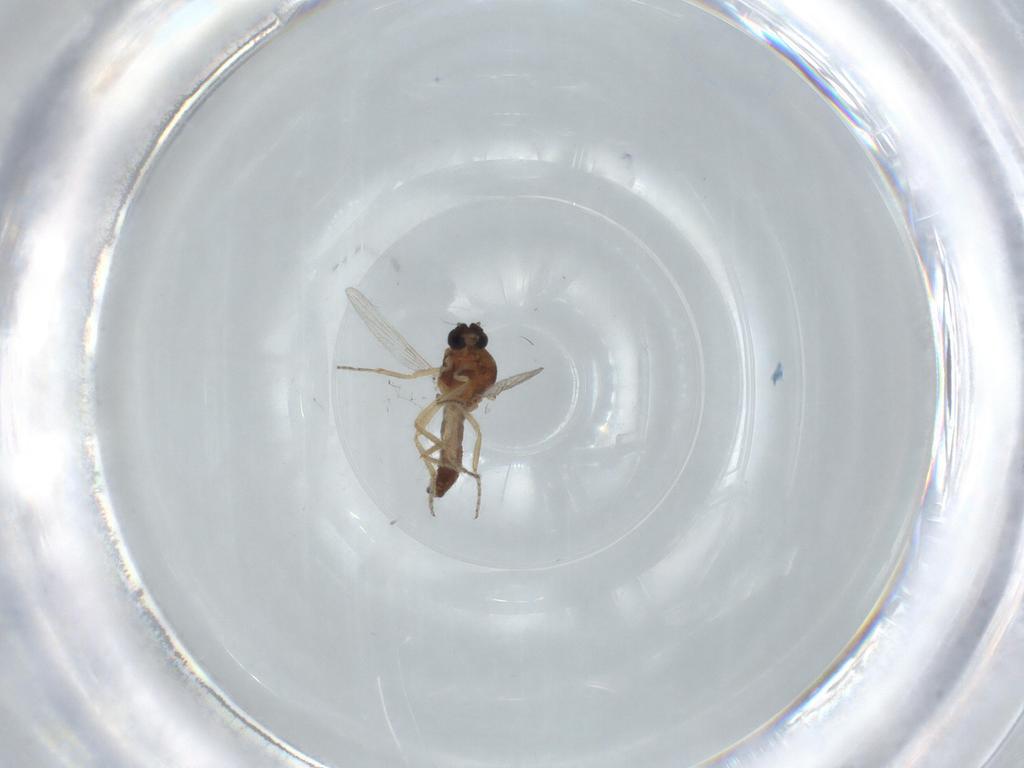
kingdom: Animalia
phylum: Arthropoda
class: Insecta
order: Diptera
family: Ceratopogonidae
